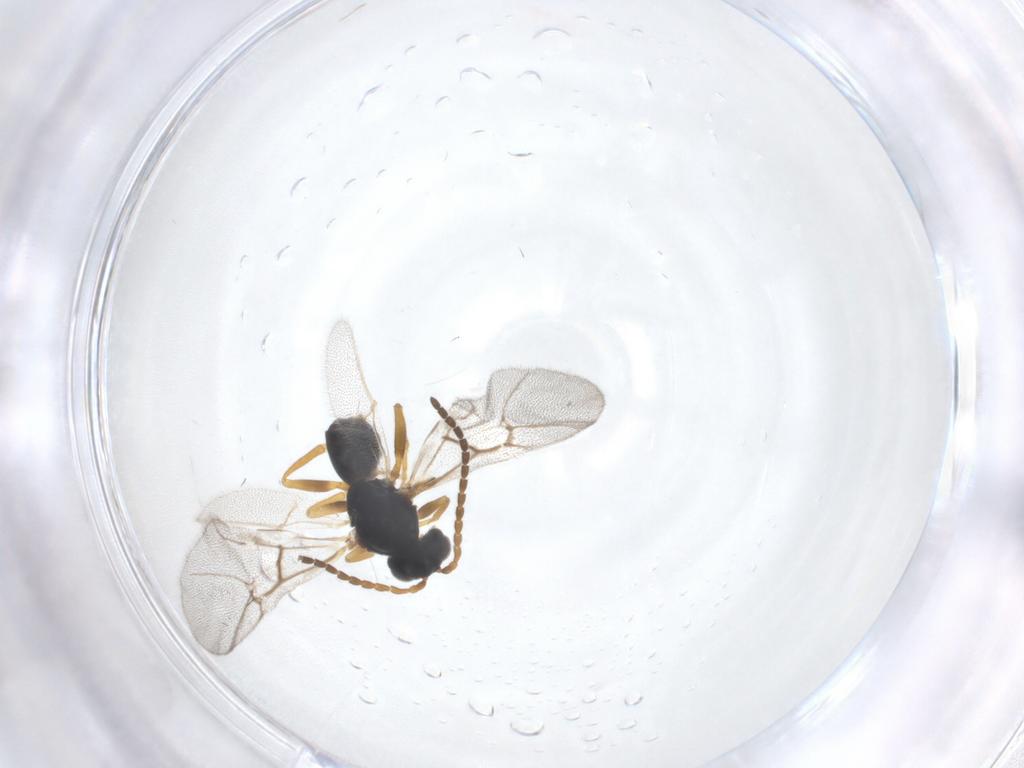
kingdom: Animalia
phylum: Arthropoda
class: Insecta
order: Hymenoptera
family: Cynipidae
